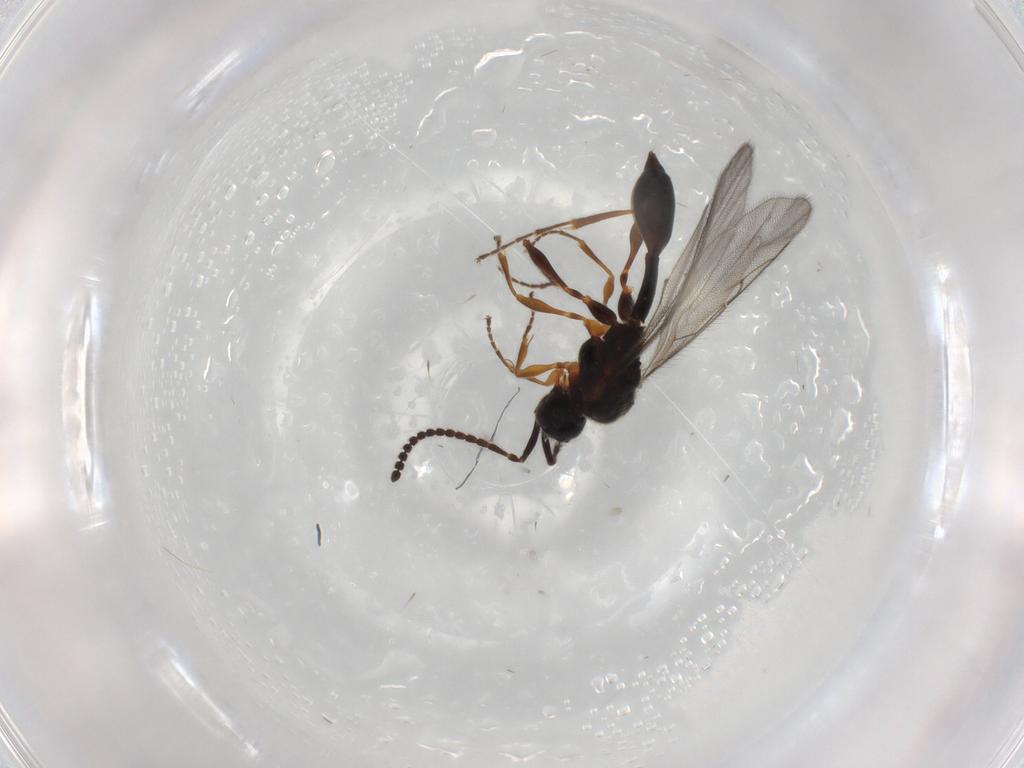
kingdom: Animalia
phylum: Arthropoda
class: Insecta
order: Hymenoptera
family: Diapriidae
